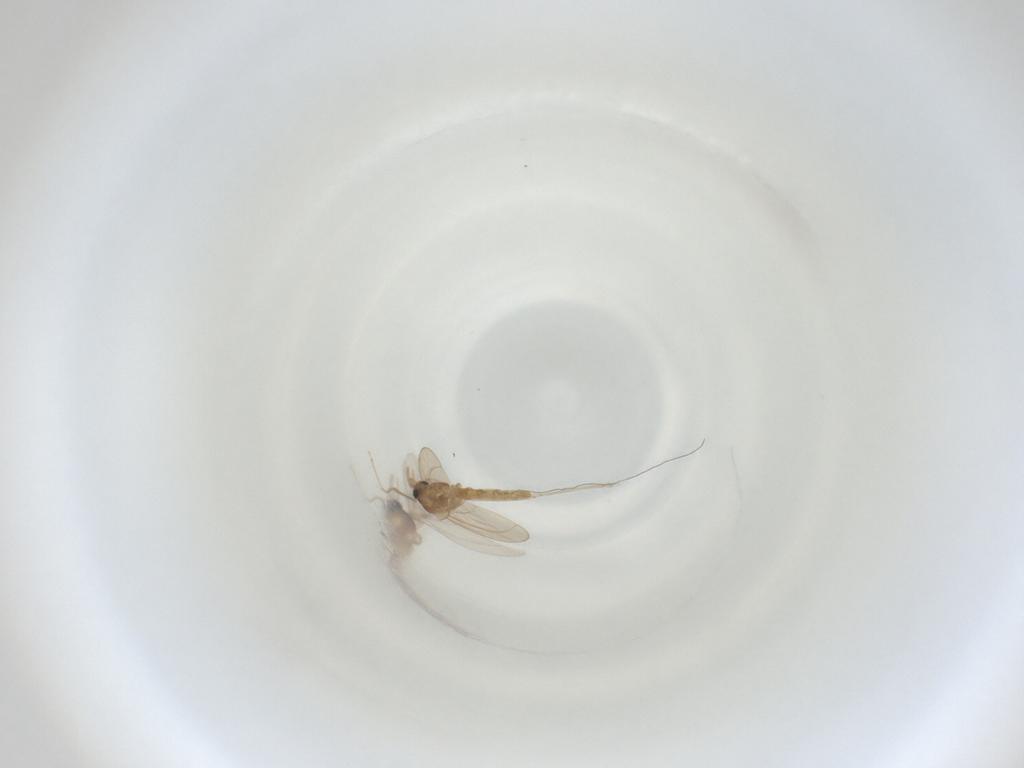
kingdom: Animalia
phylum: Arthropoda
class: Insecta
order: Diptera
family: Cecidomyiidae
